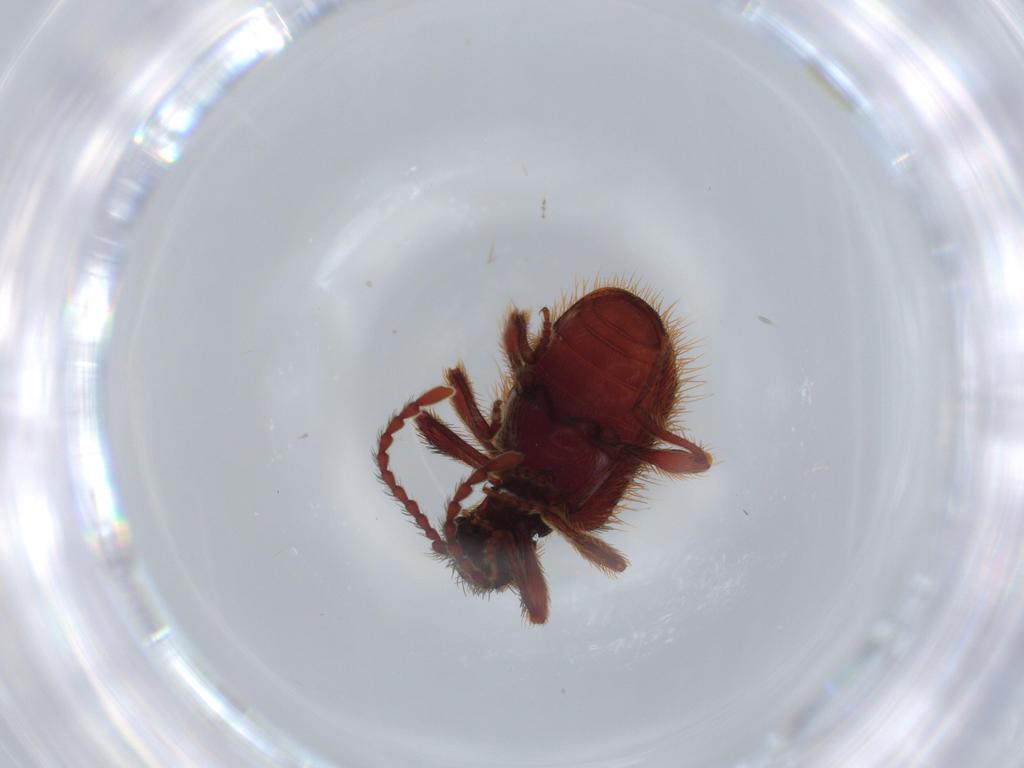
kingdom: Animalia
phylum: Arthropoda
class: Insecta
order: Coleoptera
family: Ptinidae
